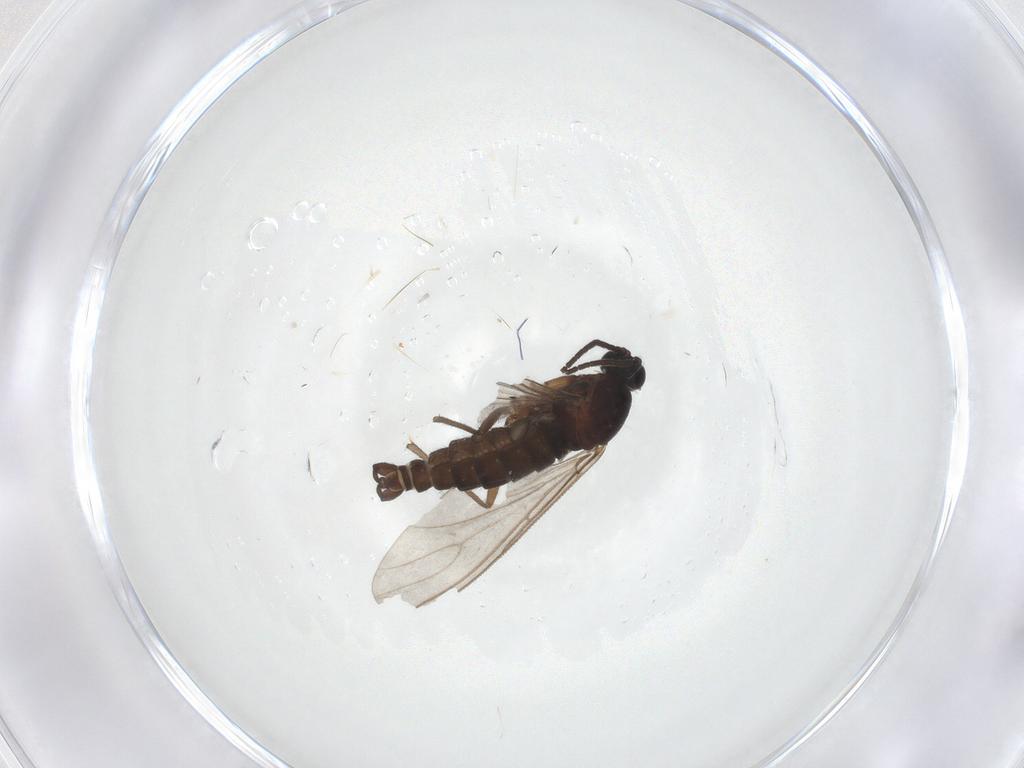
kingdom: Animalia
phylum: Arthropoda
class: Insecta
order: Diptera
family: Sciaridae
